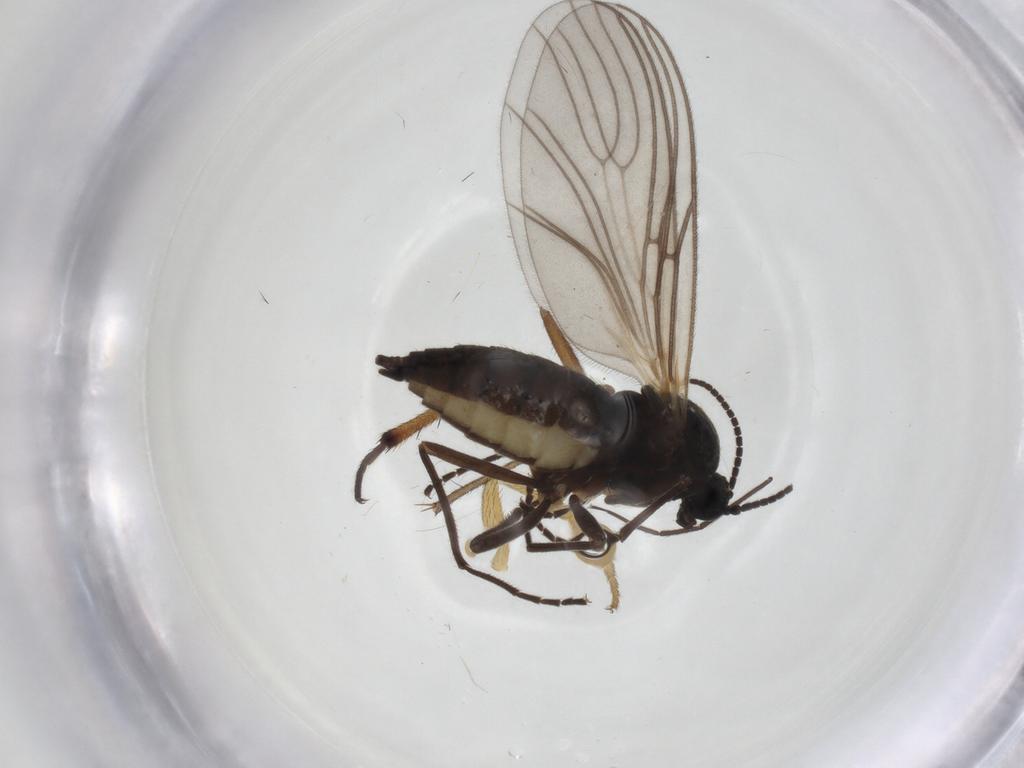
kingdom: Animalia
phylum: Arthropoda
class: Insecta
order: Diptera
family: Sciaridae
